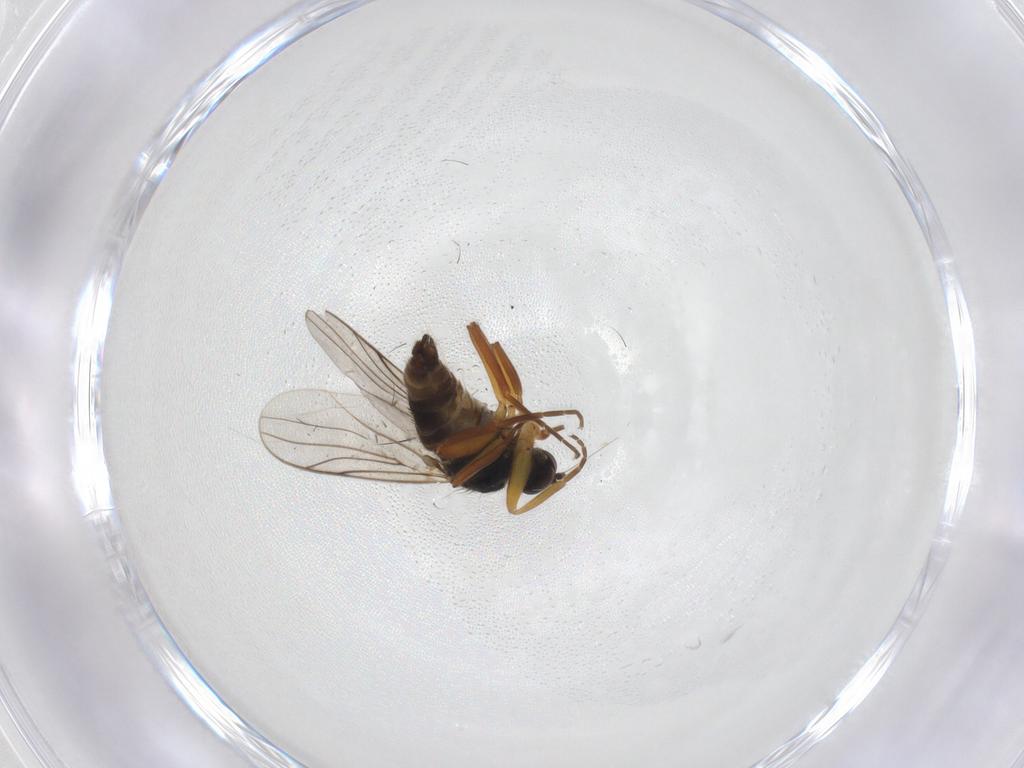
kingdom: Animalia
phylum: Arthropoda
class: Insecta
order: Diptera
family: Hybotidae
